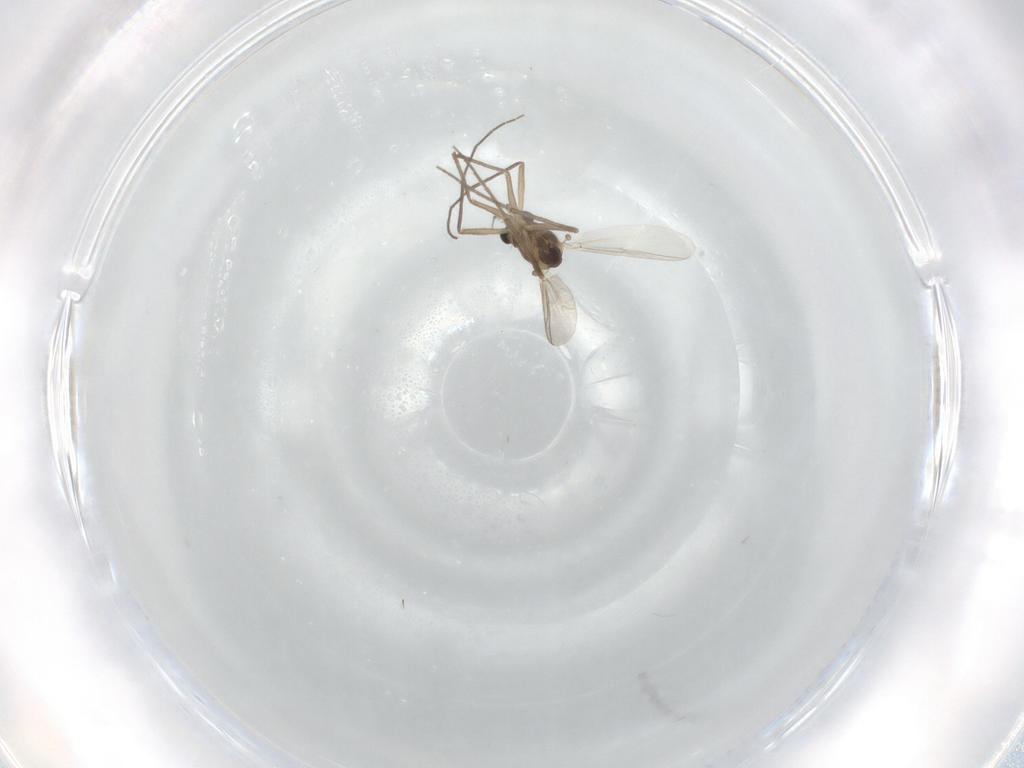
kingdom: Animalia
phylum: Arthropoda
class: Insecta
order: Diptera
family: Chironomidae
